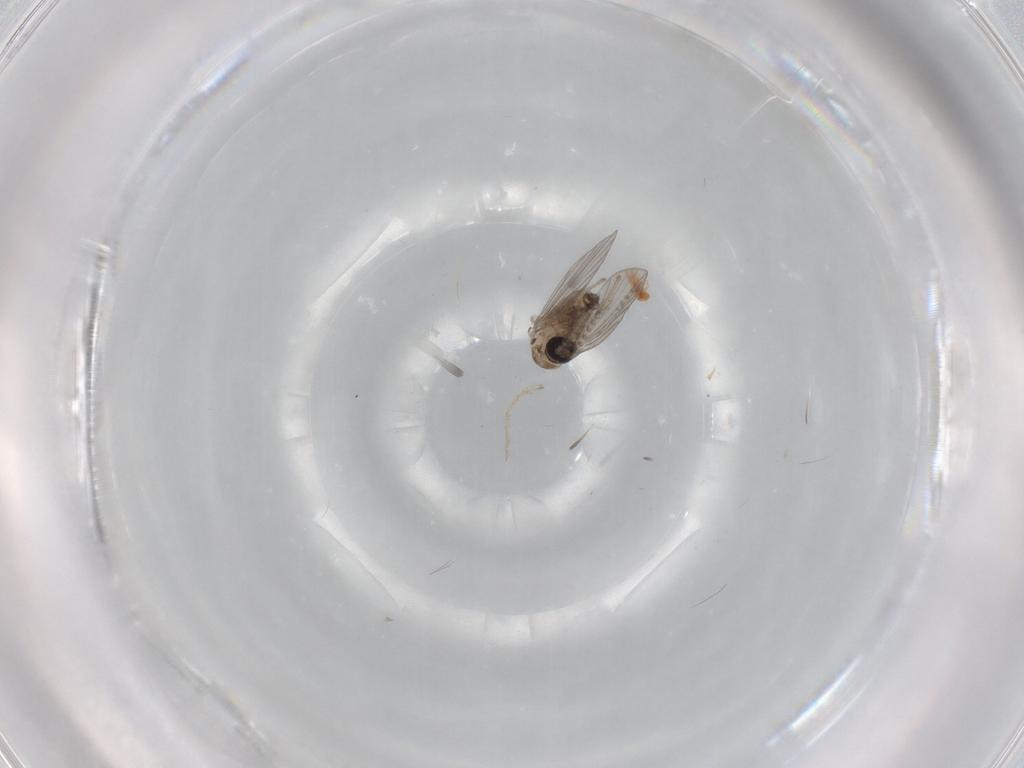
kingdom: Animalia
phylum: Arthropoda
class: Insecta
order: Diptera
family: Psychodidae
